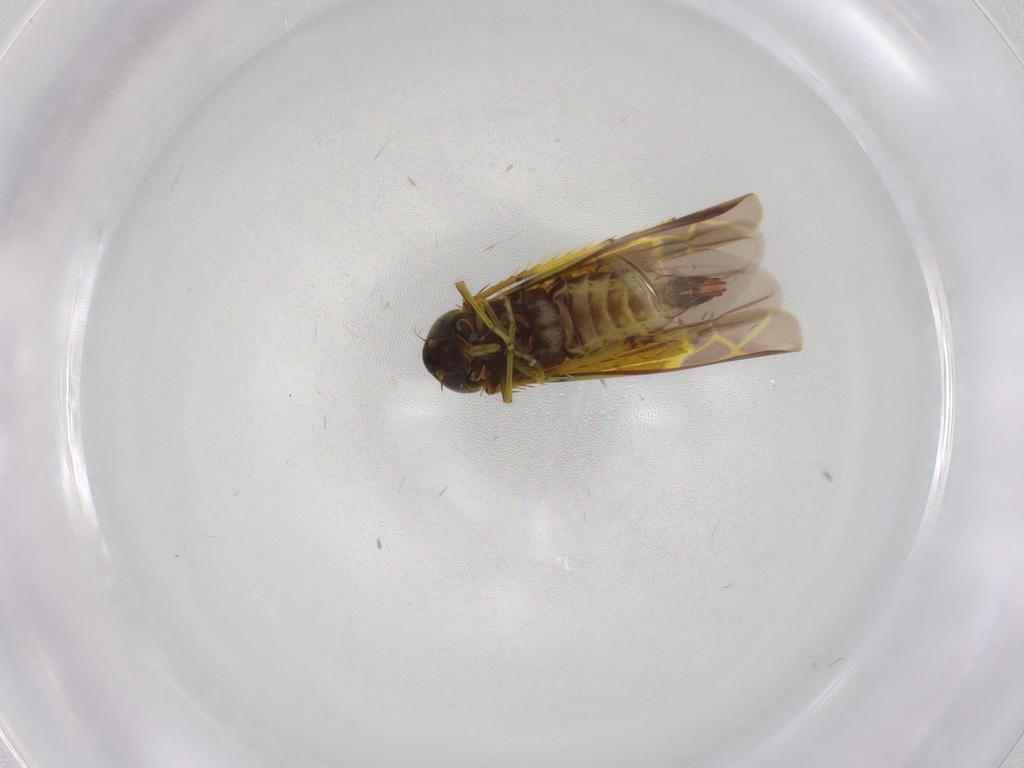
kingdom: Animalia
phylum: Arthropoda
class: Insecta
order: Hemiptera
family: Cicadellidae
